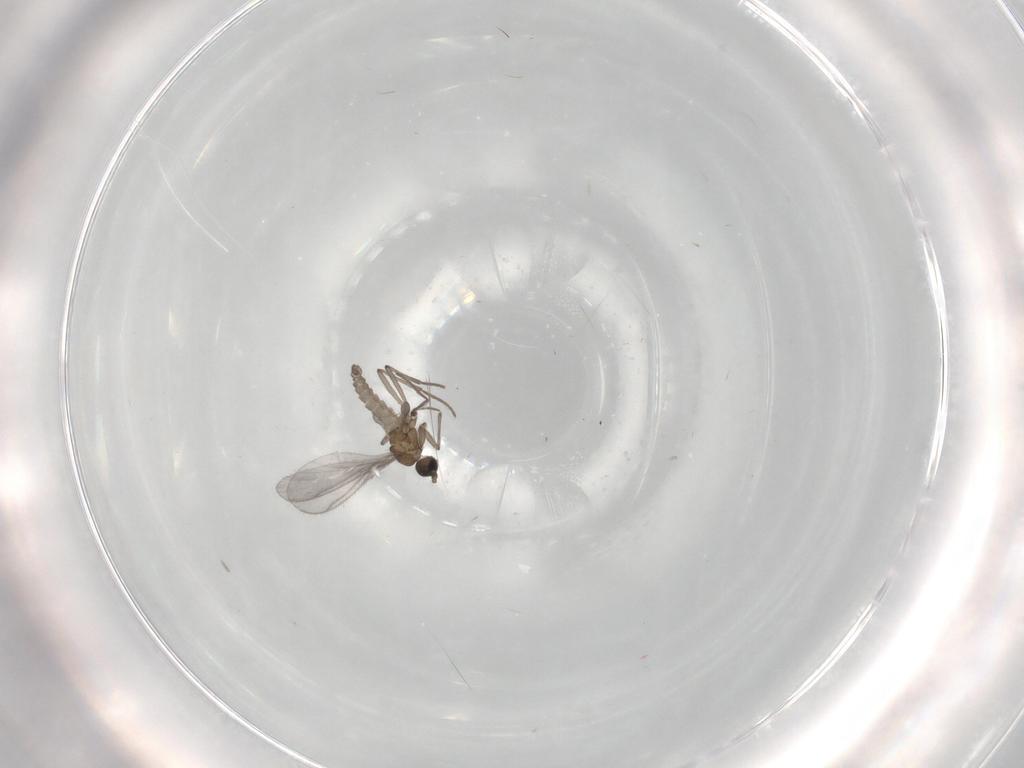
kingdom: Animalia
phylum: Arthropoda
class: Insecta
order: Diptera
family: Sciaridae
